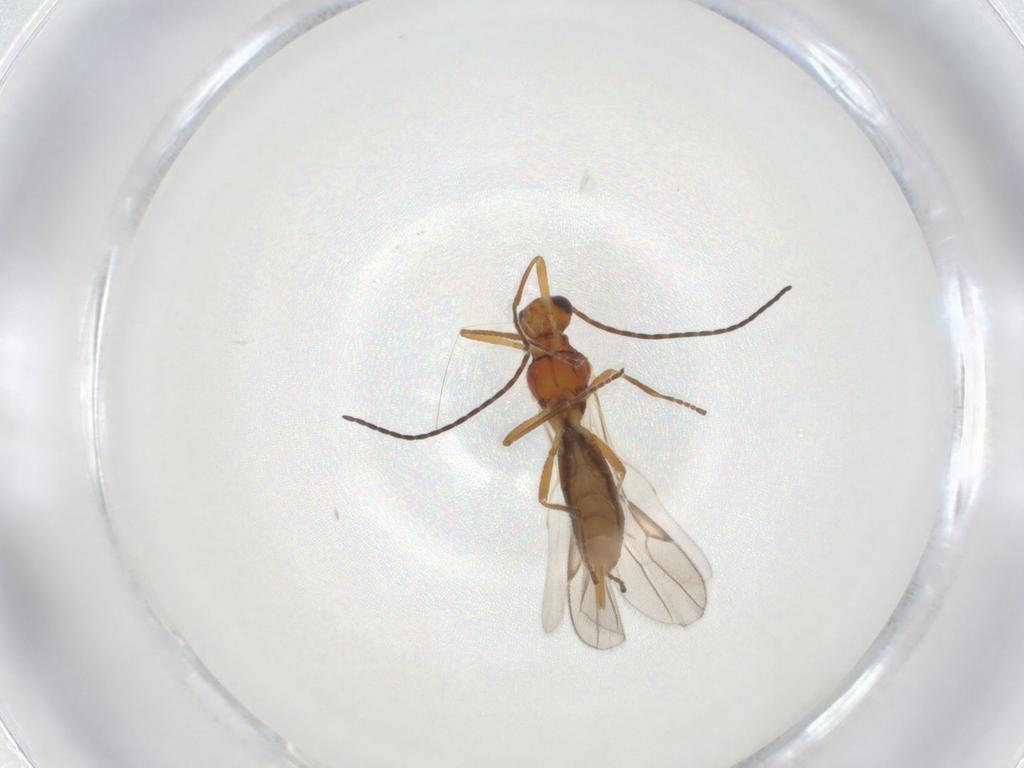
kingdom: Animalia
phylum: Arthropoda
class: Insecta
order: Hymenoptera
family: Braconidae
